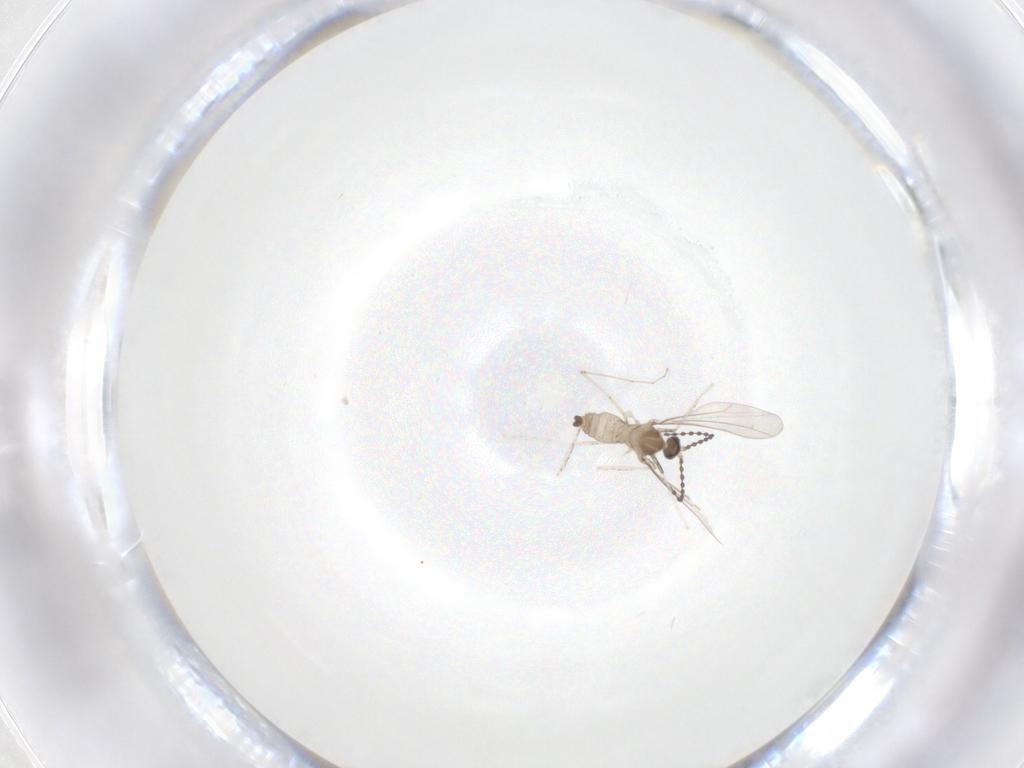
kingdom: Animalia
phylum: Arthropoda
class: Insecta
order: Diptera
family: Cecidomyiidae
